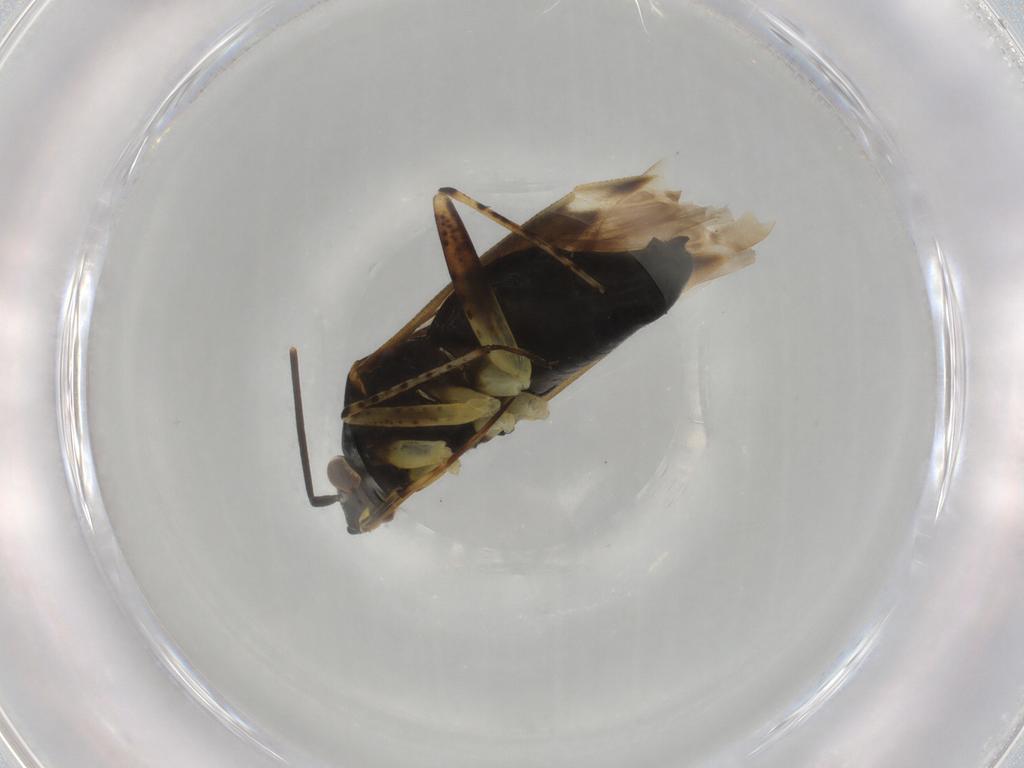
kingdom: Animalia
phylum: Arthropoda
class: Insecta
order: Hemiptera
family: Miridae
